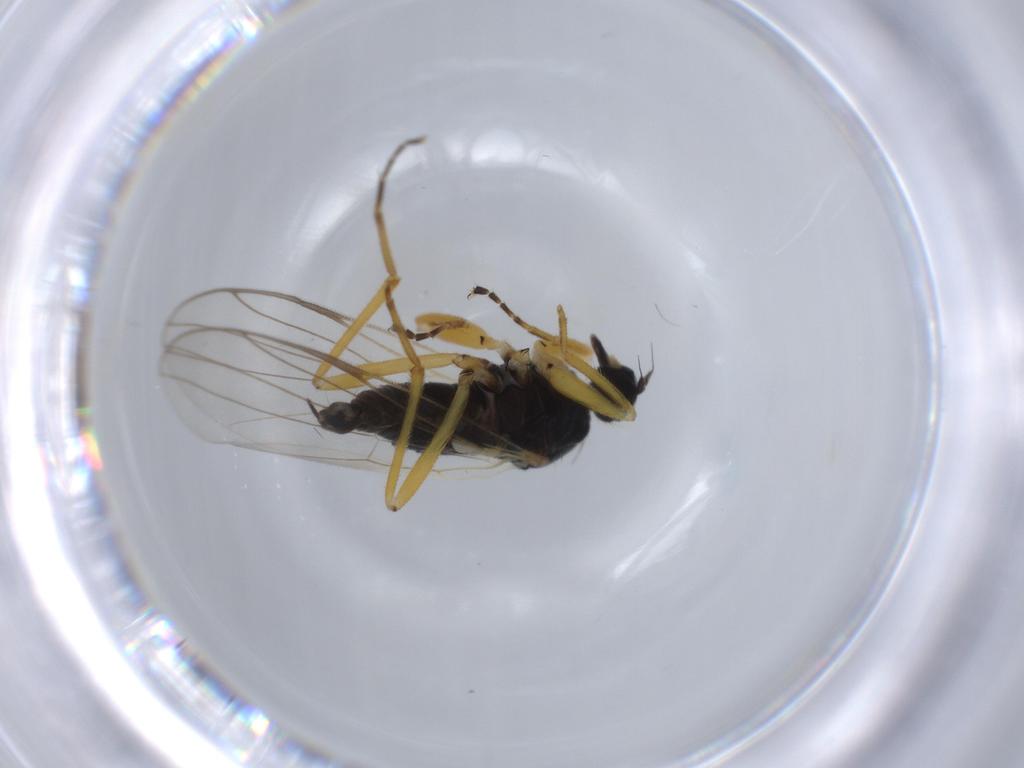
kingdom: Animalia
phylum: Arthropoda
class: Insecta
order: Diptera
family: Hybotidae
